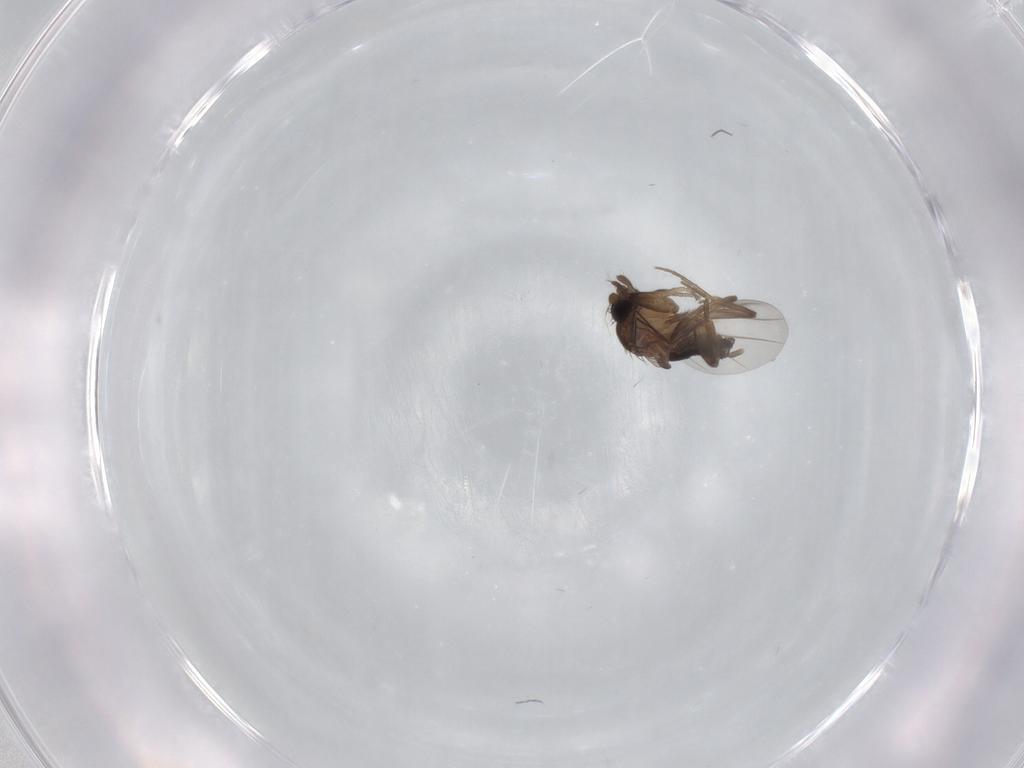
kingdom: Animalia
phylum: Arthropoda
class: Insecta
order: Diptera
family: Phoridae
